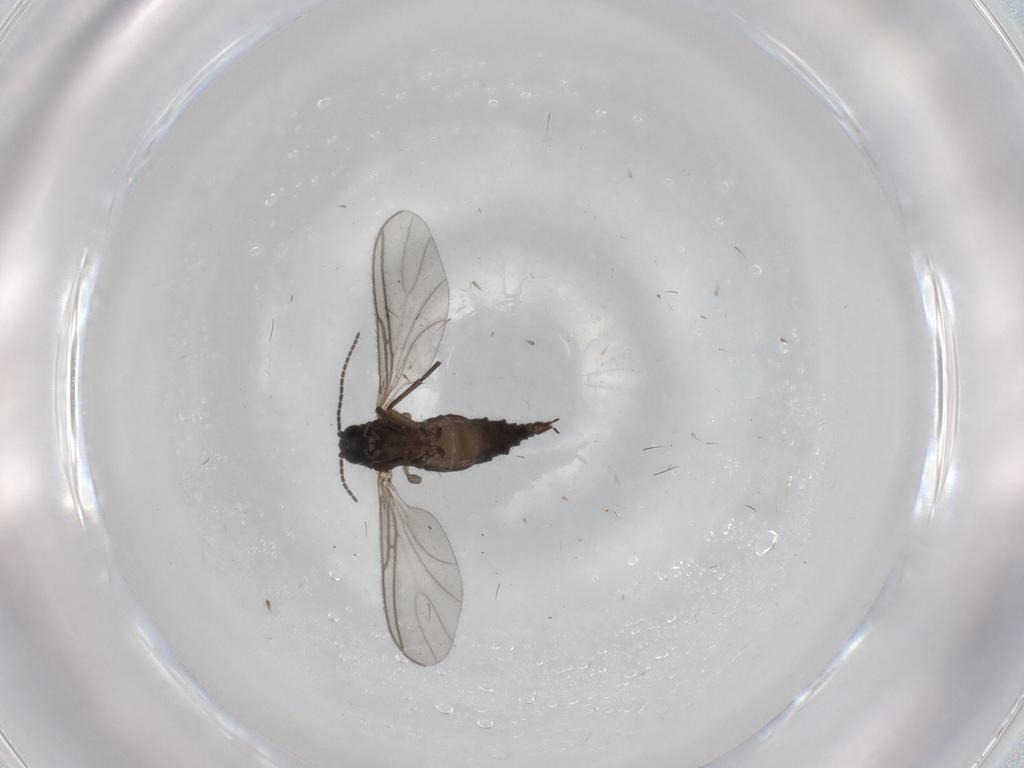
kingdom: Animalia
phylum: Arthropoda
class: Insecta
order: Diptera
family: Sciaridae
